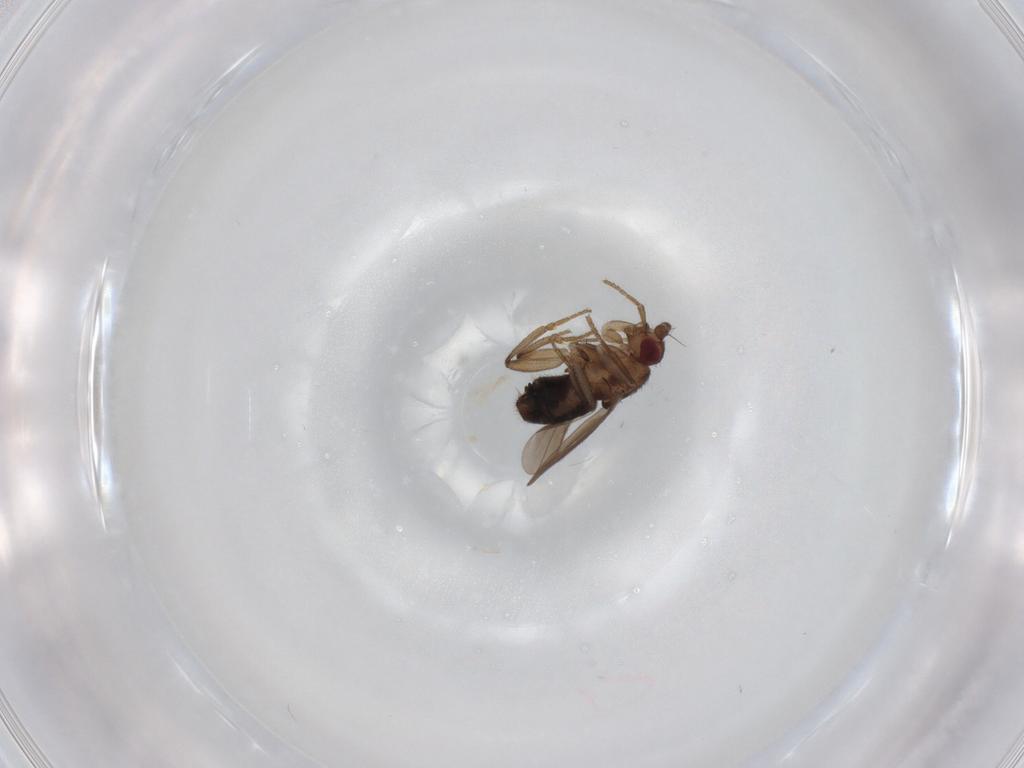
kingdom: Animalia
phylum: Arthropoda
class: Insecta
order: Diptera
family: Sphaeroceridae
